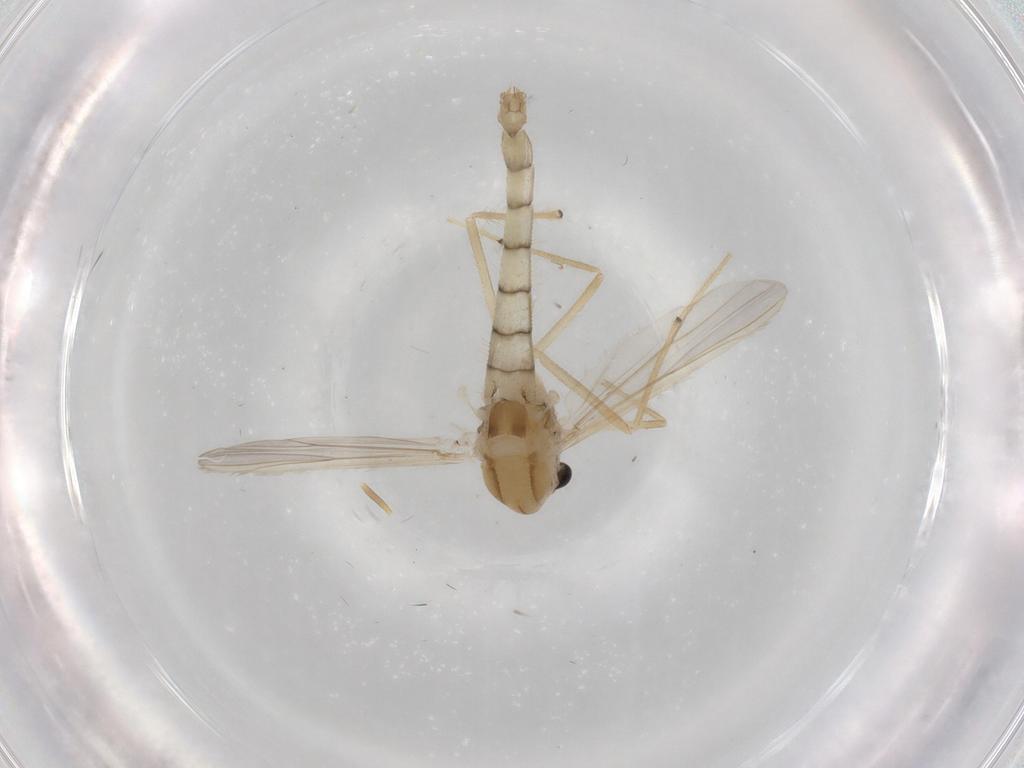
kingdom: Animalia
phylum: Arthropoda
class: Insecta
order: Diptera
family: Chironomidae
